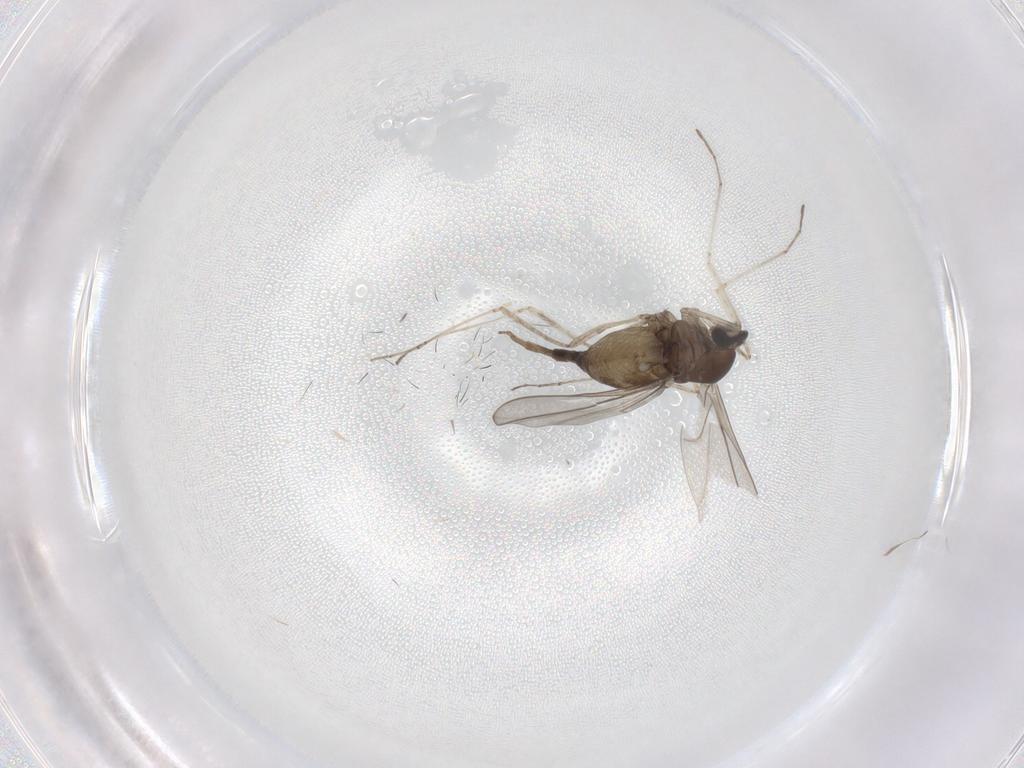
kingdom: Animalia
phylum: Arthropoda
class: Insecta
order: Diptera
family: Cecidomyiidae
